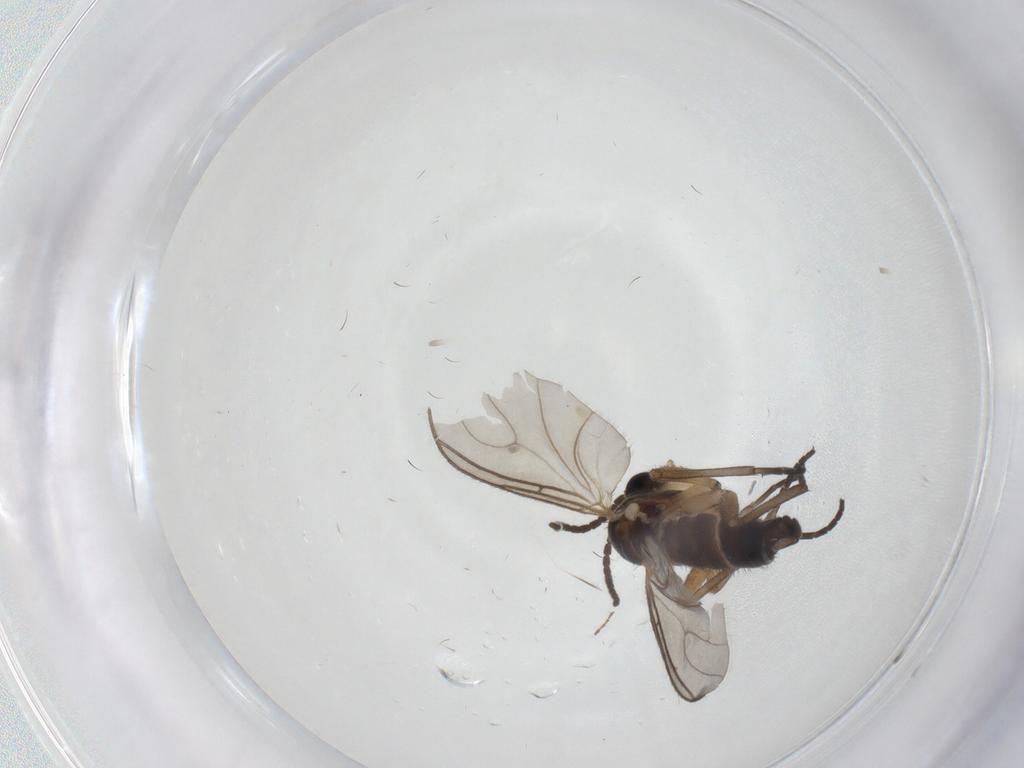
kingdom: Animalia
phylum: Arthropoda
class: Insecta
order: Diptera
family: Sciaridae
